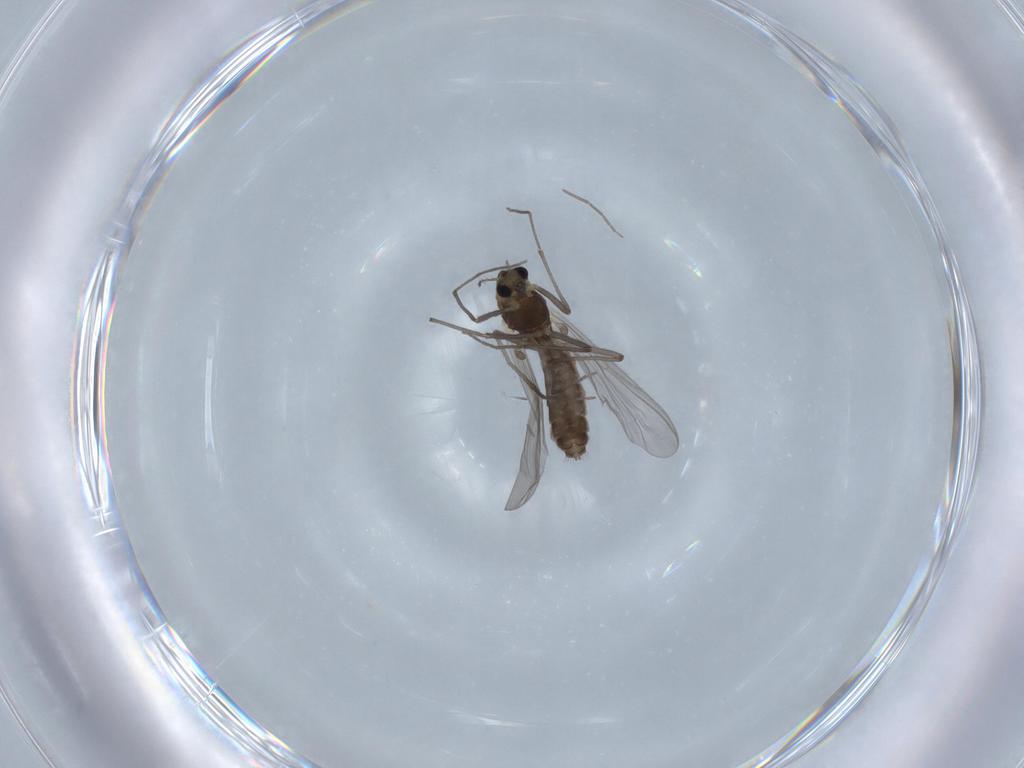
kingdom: Animalia
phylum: Arthropoda
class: Insecta
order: Diptera
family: Chironomidae
